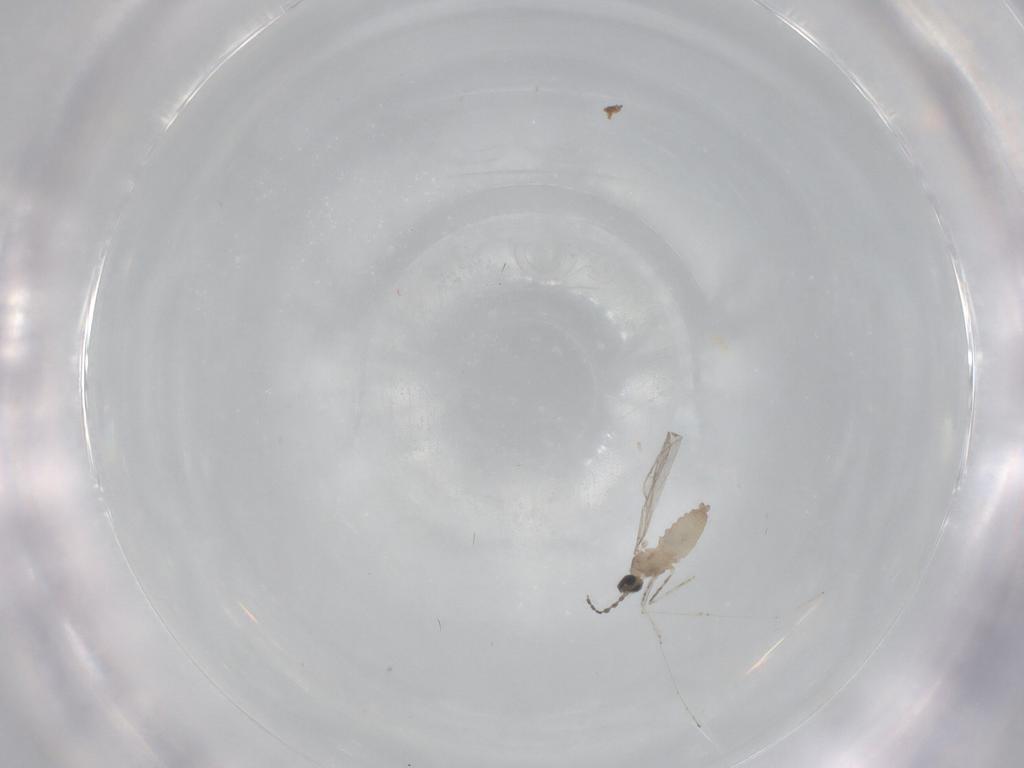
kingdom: Animalia
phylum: Arthropoda
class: Insecta
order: Diptera
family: Cecidomyiidae
